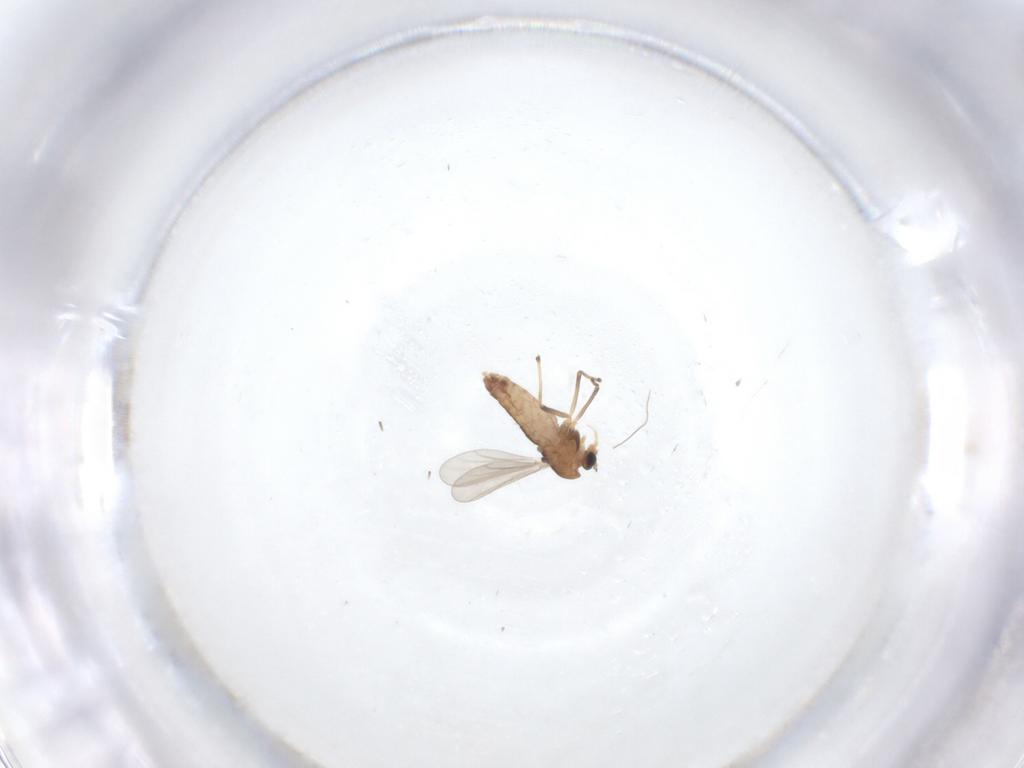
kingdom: Animalia
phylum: Arthropoda
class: Insecta
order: Diptera
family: Chironomidae
